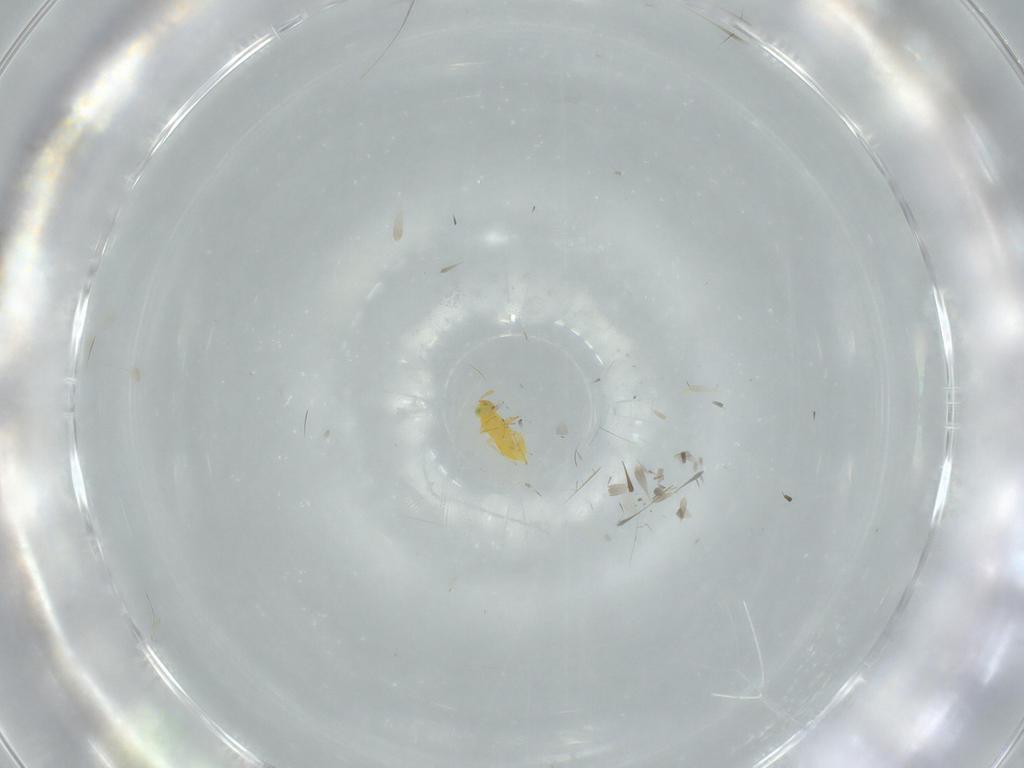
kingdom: Animalia
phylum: Arthropoda
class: Insecta
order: Hymenoptera
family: Aphelinidae
